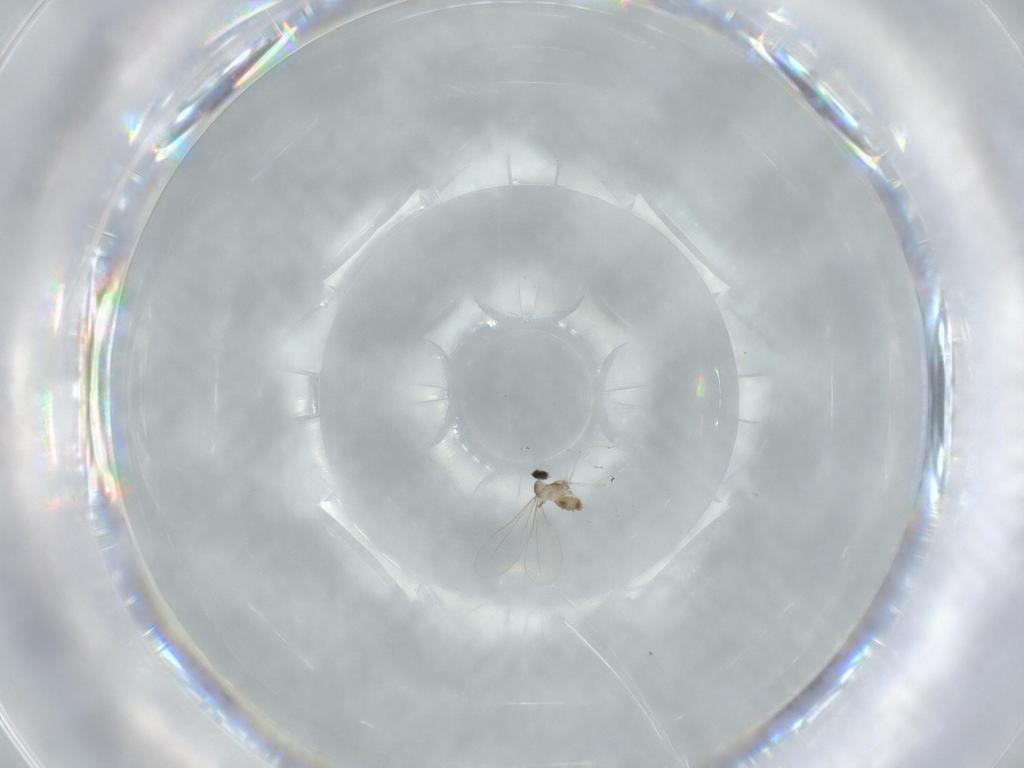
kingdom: Animalia
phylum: Arthropoda
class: Insecta
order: Diptera
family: Cecidomyiidae
